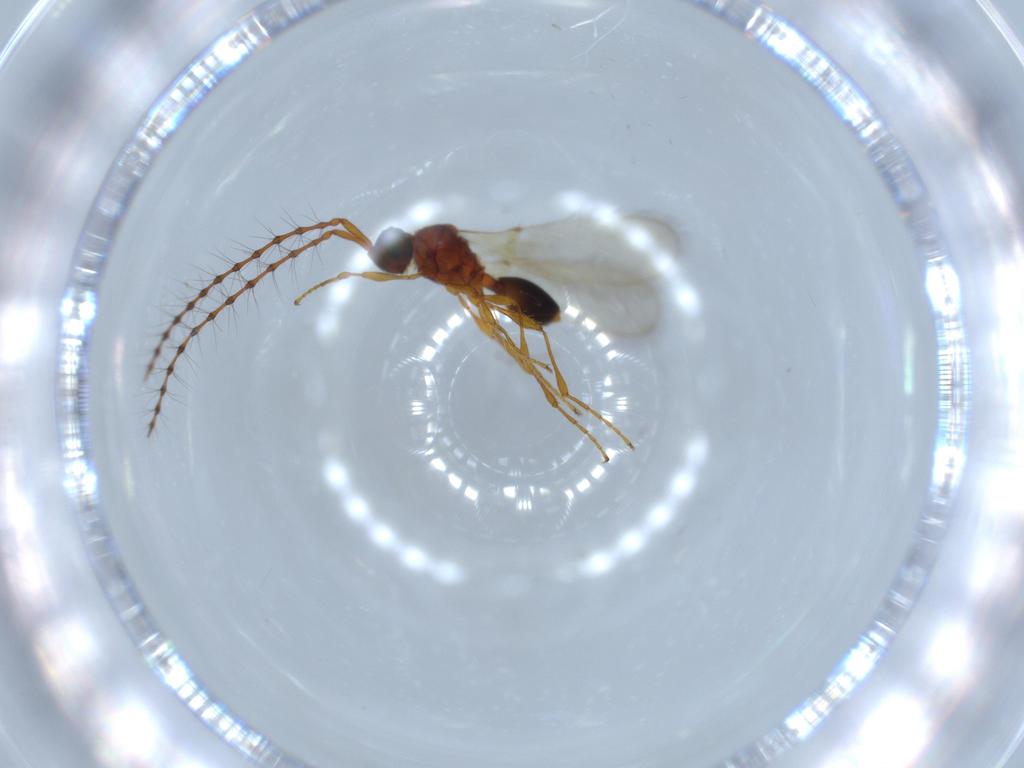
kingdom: Animalia
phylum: Arthropoda
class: Insecta
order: Hymenoptera
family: Diapriidae
